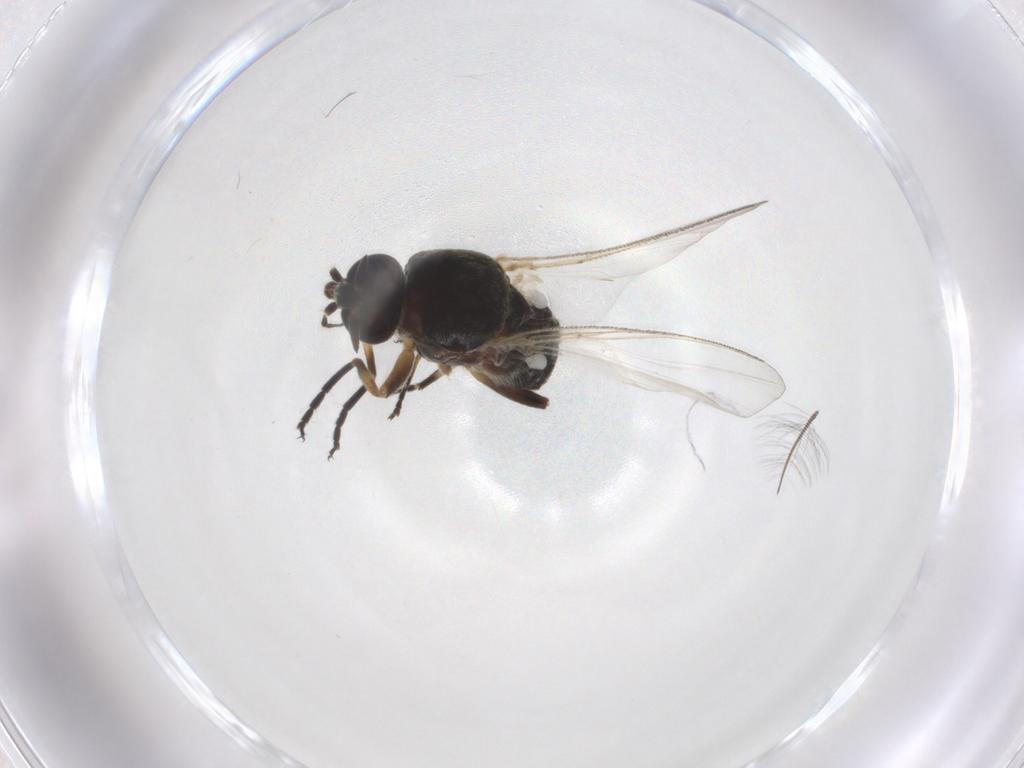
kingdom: Animalia
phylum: Arthropoda
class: Insecta
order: Diptera
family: Ceratopogonidae
